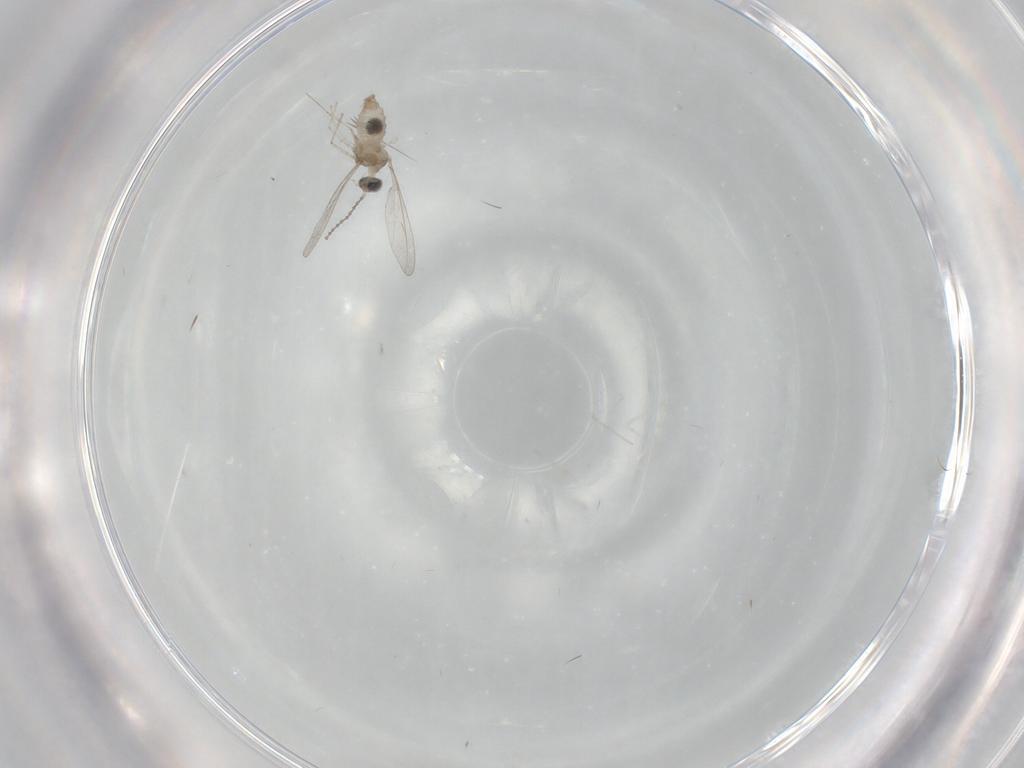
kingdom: Animalia
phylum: Arthropoda
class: Insecta
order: Diptera
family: Cecidomyiidae
